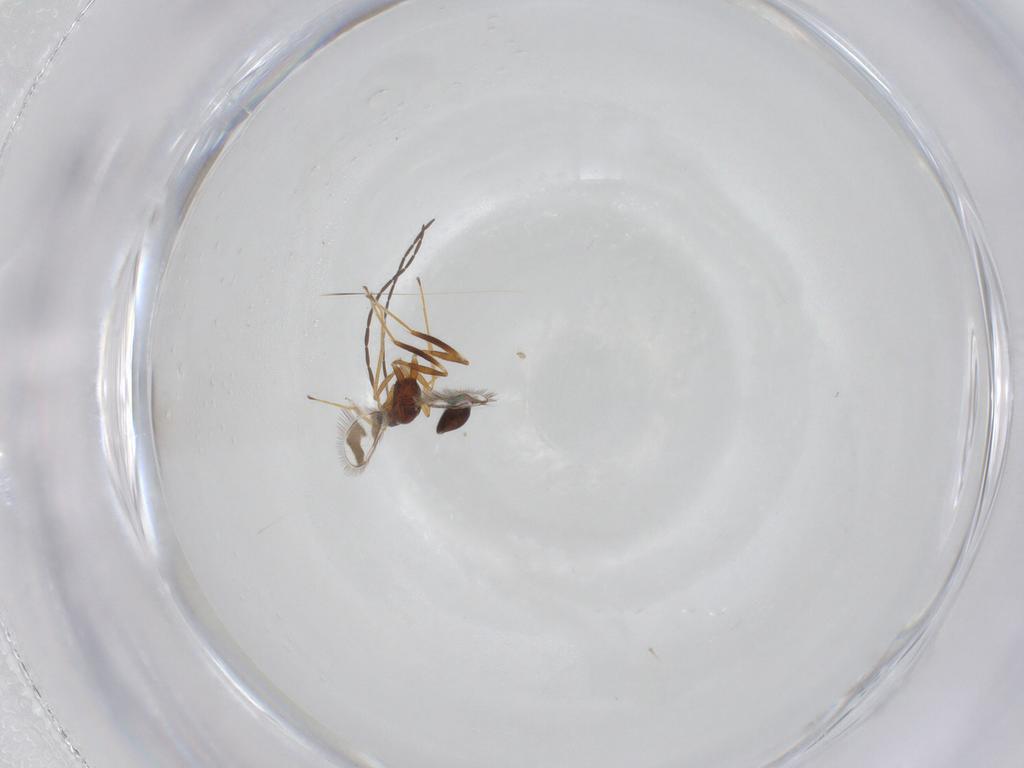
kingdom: Animalia
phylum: Arthropoda
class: Insecta
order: Hymenoptera
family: Mymaridae
